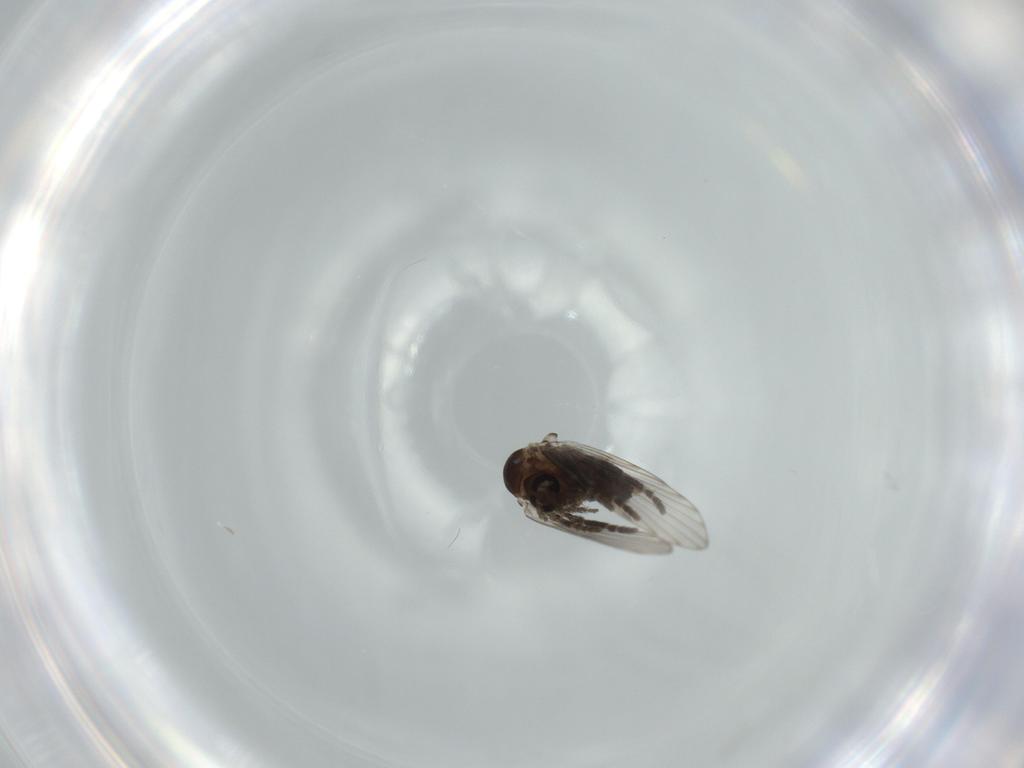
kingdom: Animalia
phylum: Arthropoda
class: Insecta
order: Diptera
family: Psychodidae
